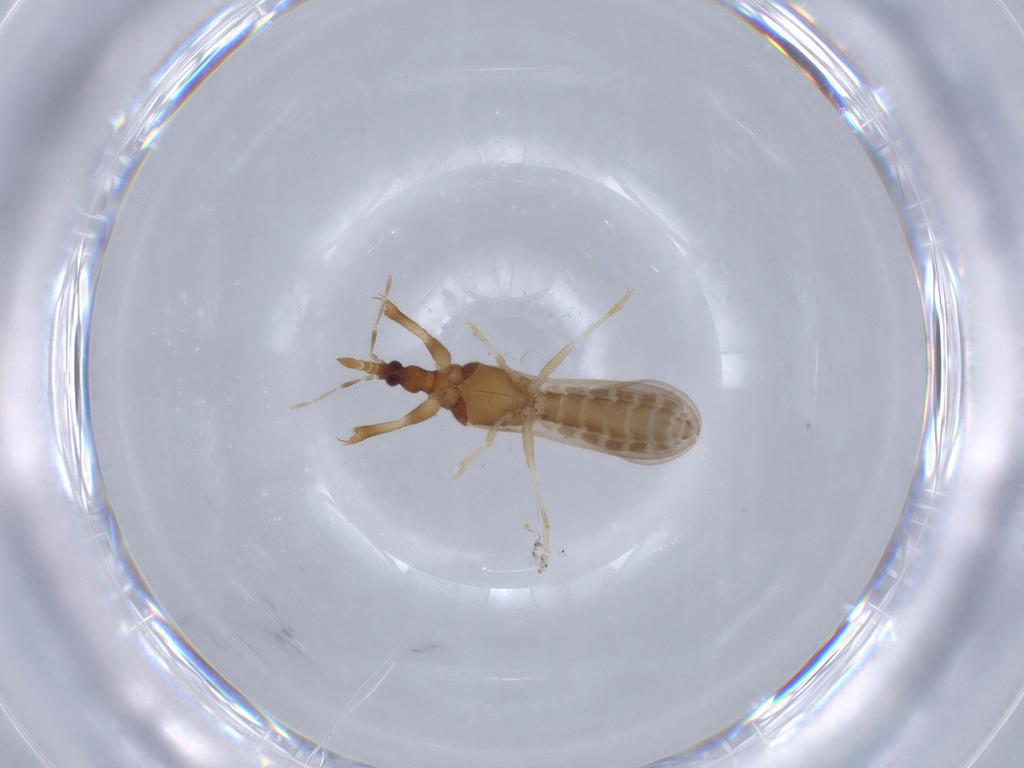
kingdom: Animalia
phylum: Arthropoda
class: Insecta
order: Hemiptera
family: Enicocephalidae
